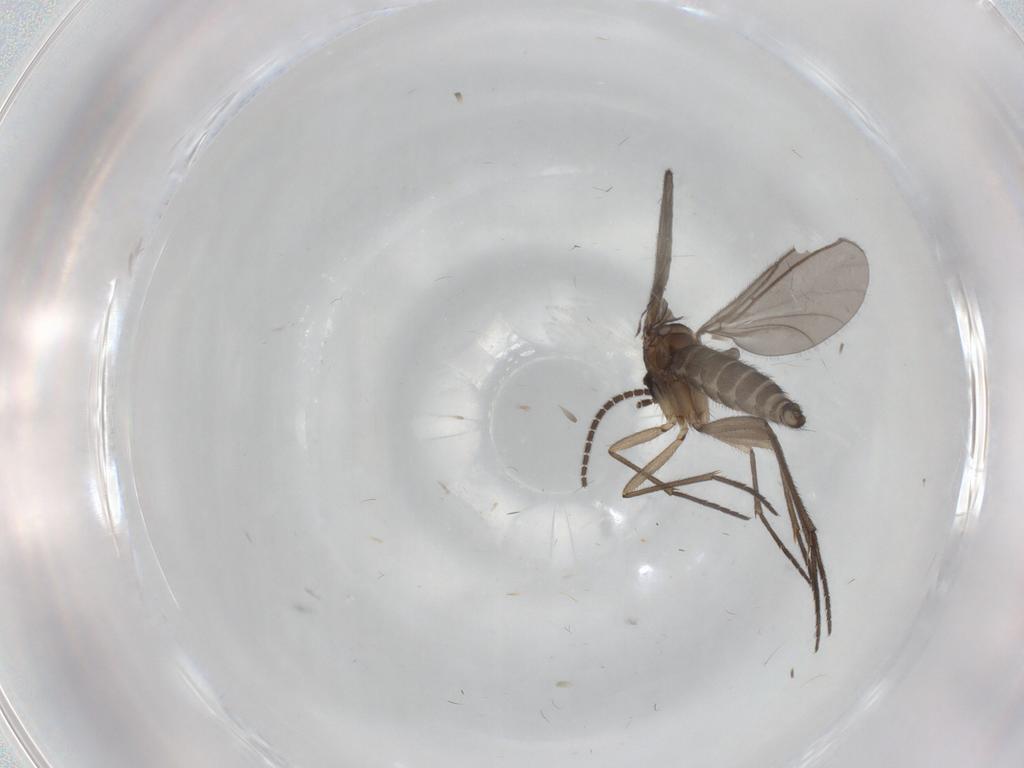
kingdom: Animalia
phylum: Arthropoda
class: Insecta
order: Diptera
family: Sciaridae
